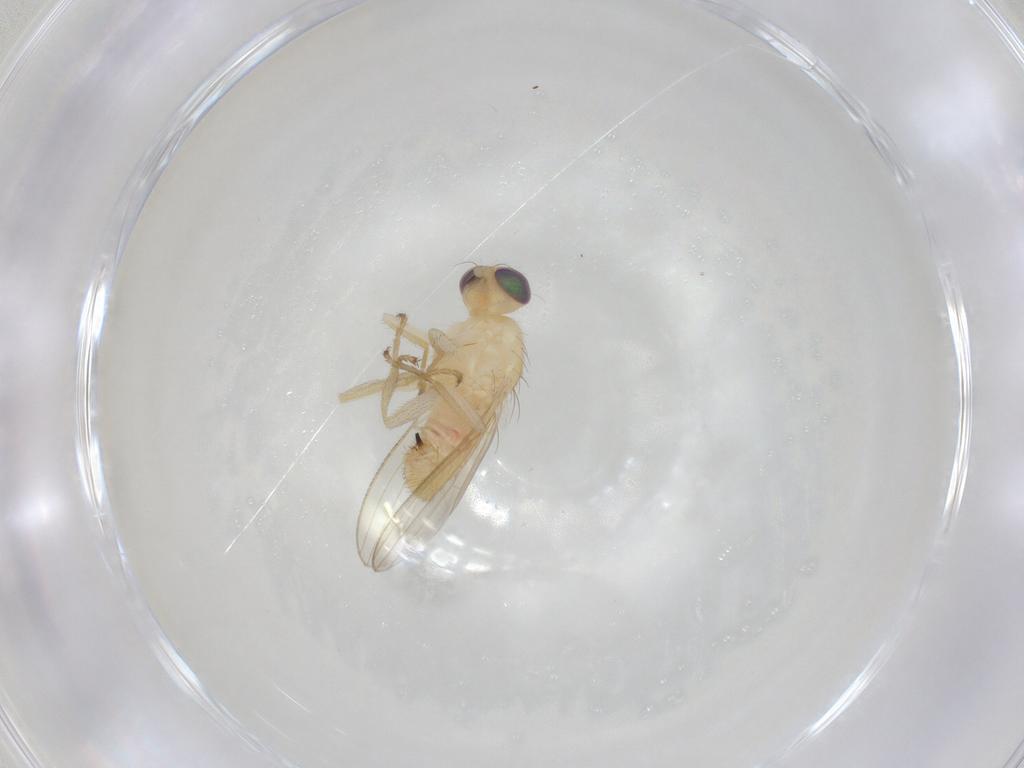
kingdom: Animalia
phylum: Arthropoda
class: Insecta
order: Diptera
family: Chyromyidae
